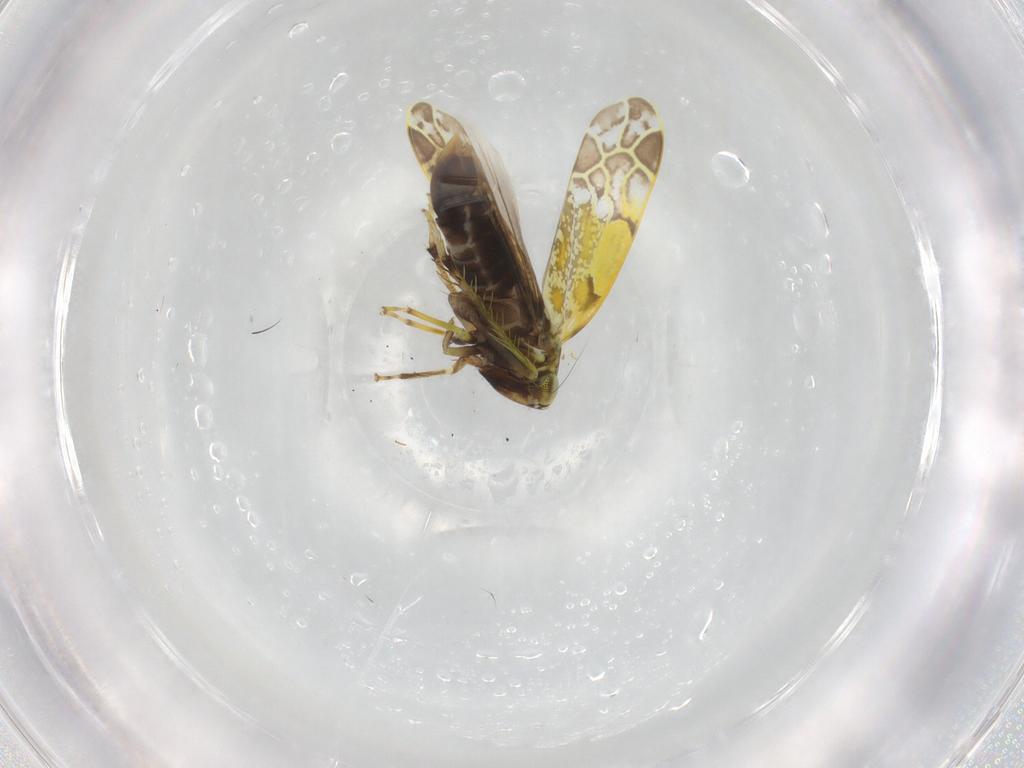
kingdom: Animalia
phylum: Arthropoda
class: Insecta
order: Hemiptera
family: Cicadellidae
